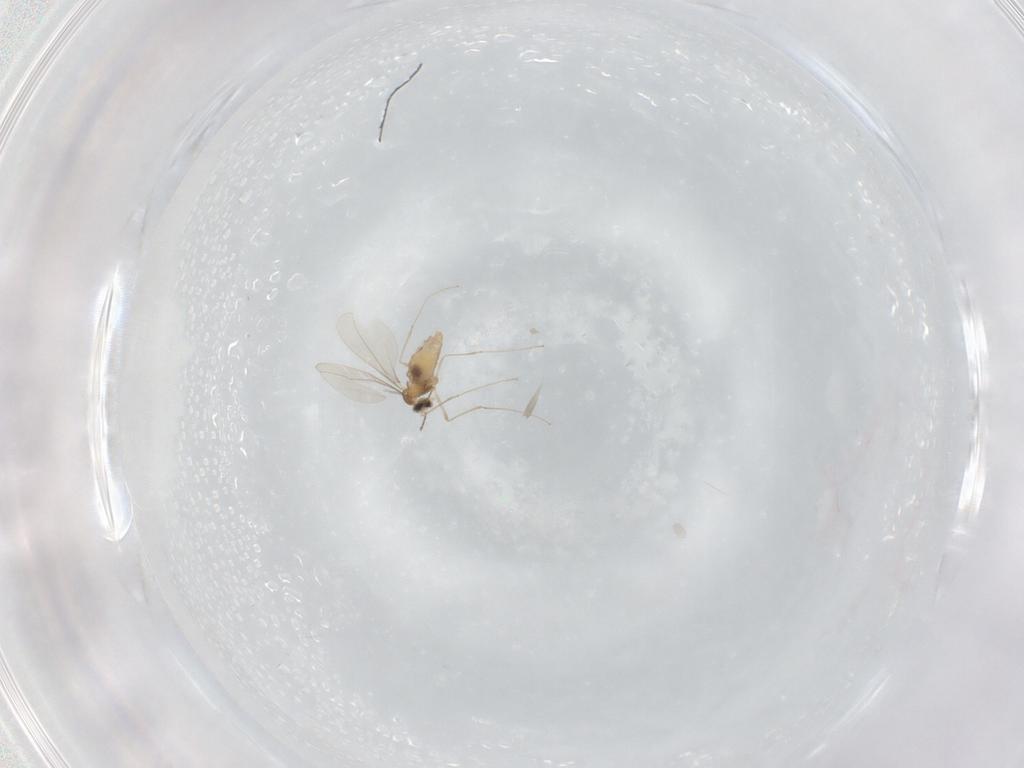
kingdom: Animalia
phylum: Arthropoda
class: Insecta
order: Diptera
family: Cecidomyiidae
